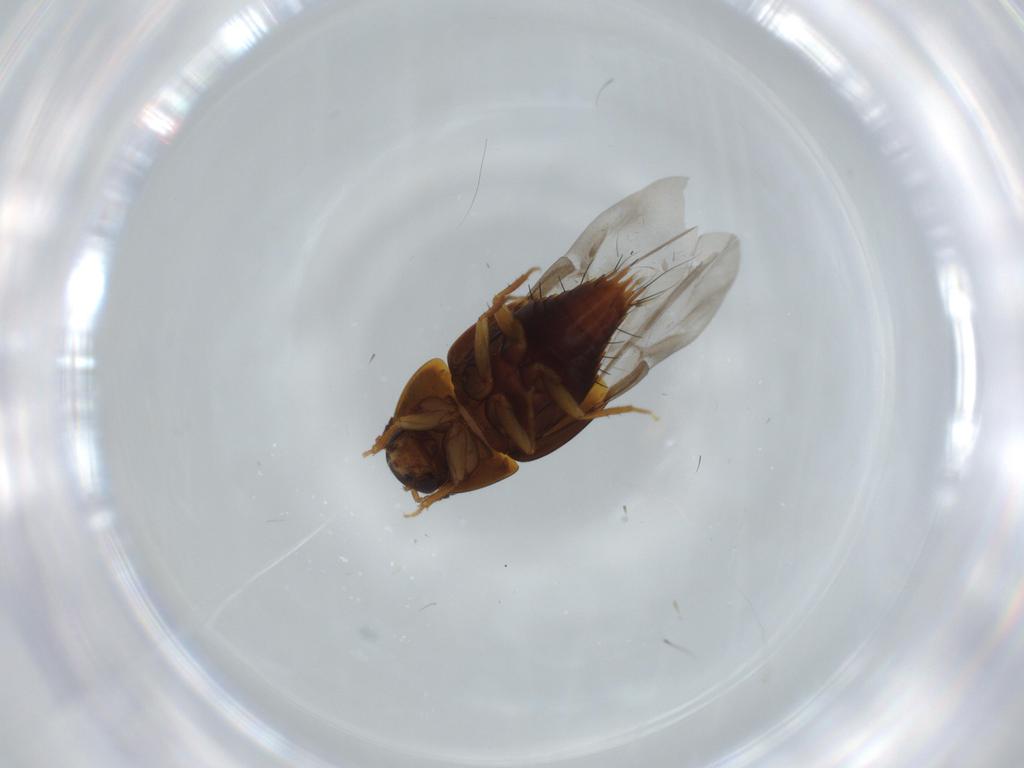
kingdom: Animalia
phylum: Arthropoda
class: Insecta
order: Coleoptera
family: Staphylinidae
